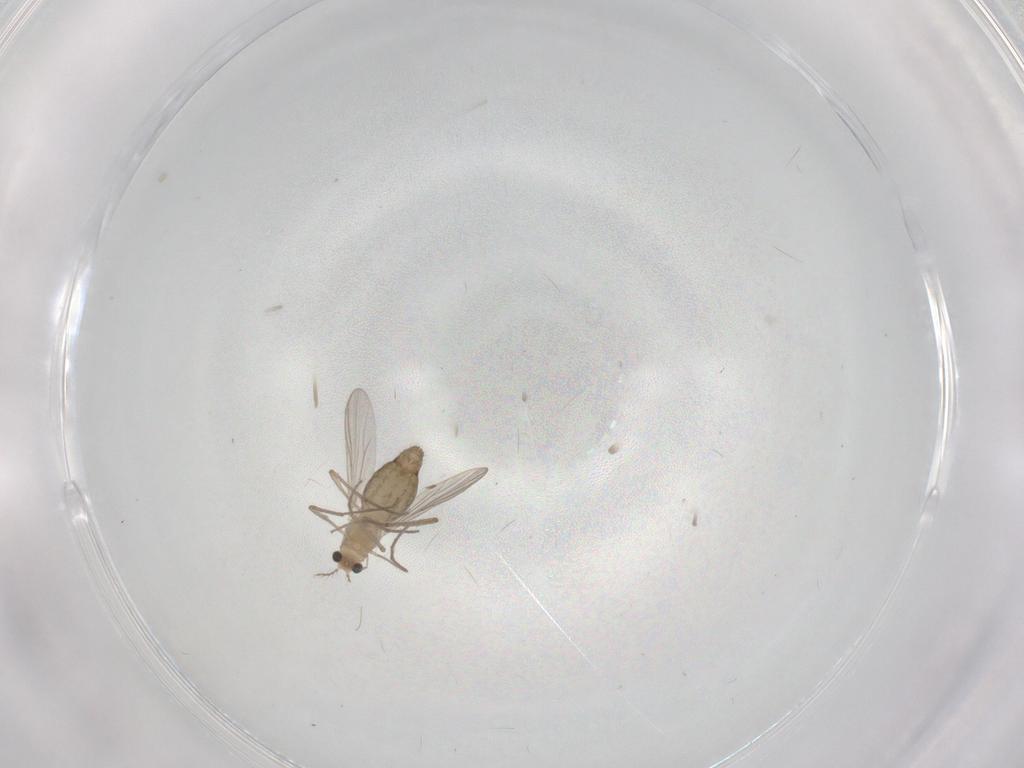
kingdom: Animalia
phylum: Arthropoda
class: Insecta
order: Diptera
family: Chironomidae
